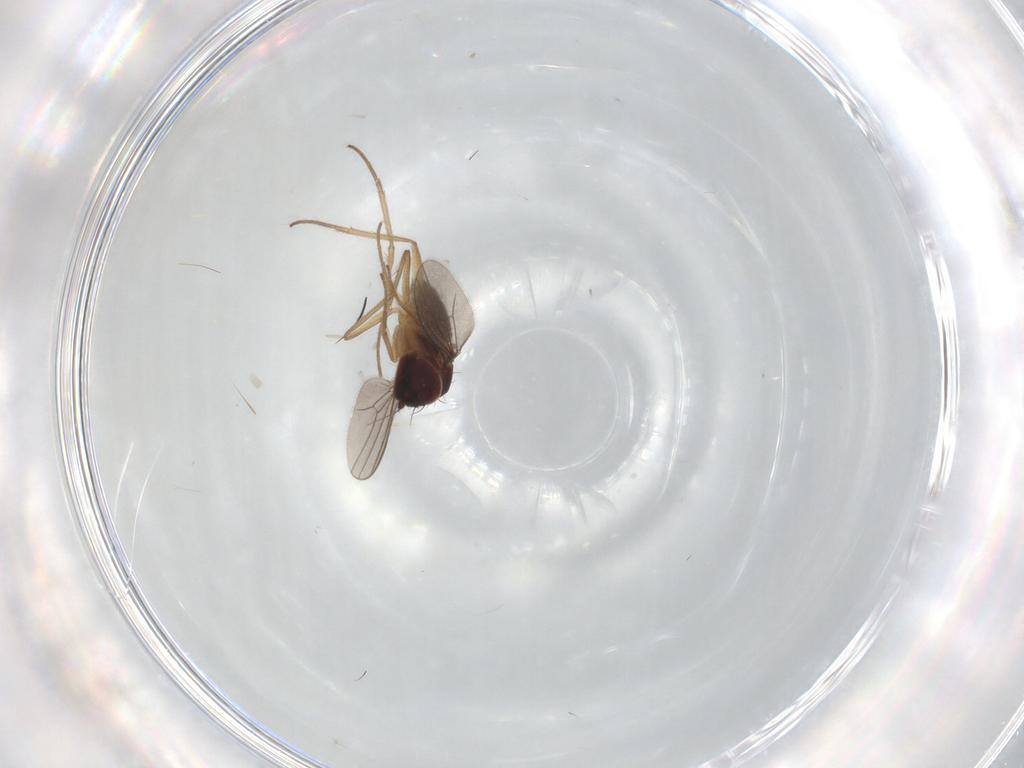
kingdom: Animalia
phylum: Arthropoda
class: Insecta
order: Diptera
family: Dolichopodidae
